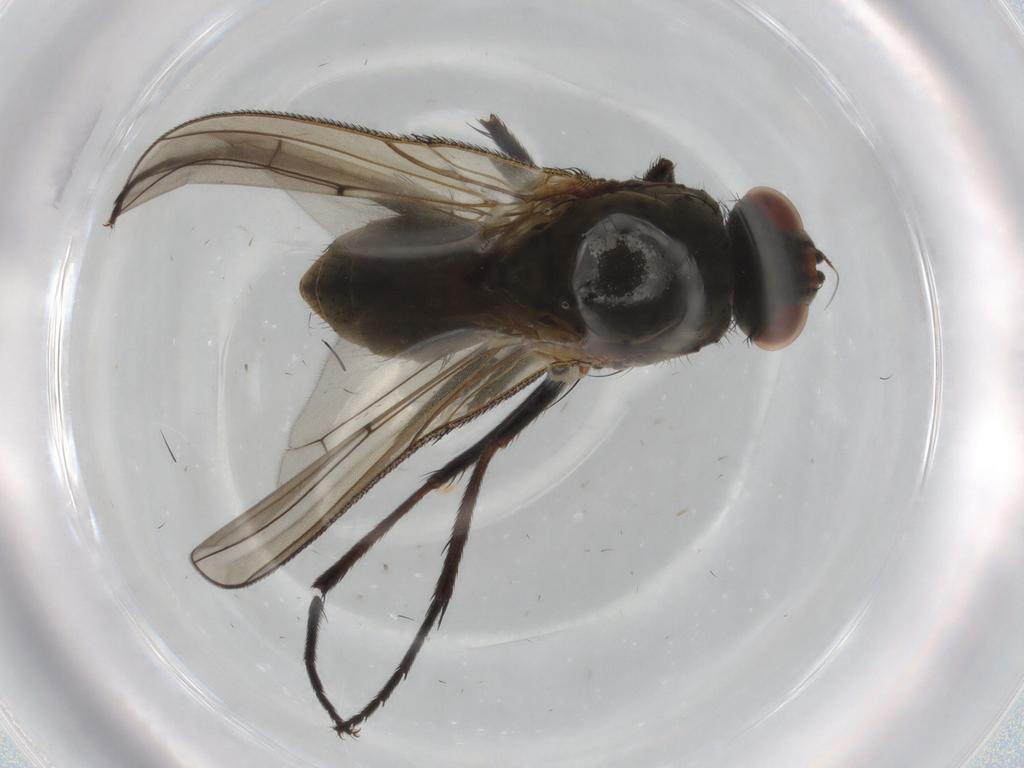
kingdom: Animalia
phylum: Arthropoda
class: Insecta
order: Diptera
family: Anthomyiidae
